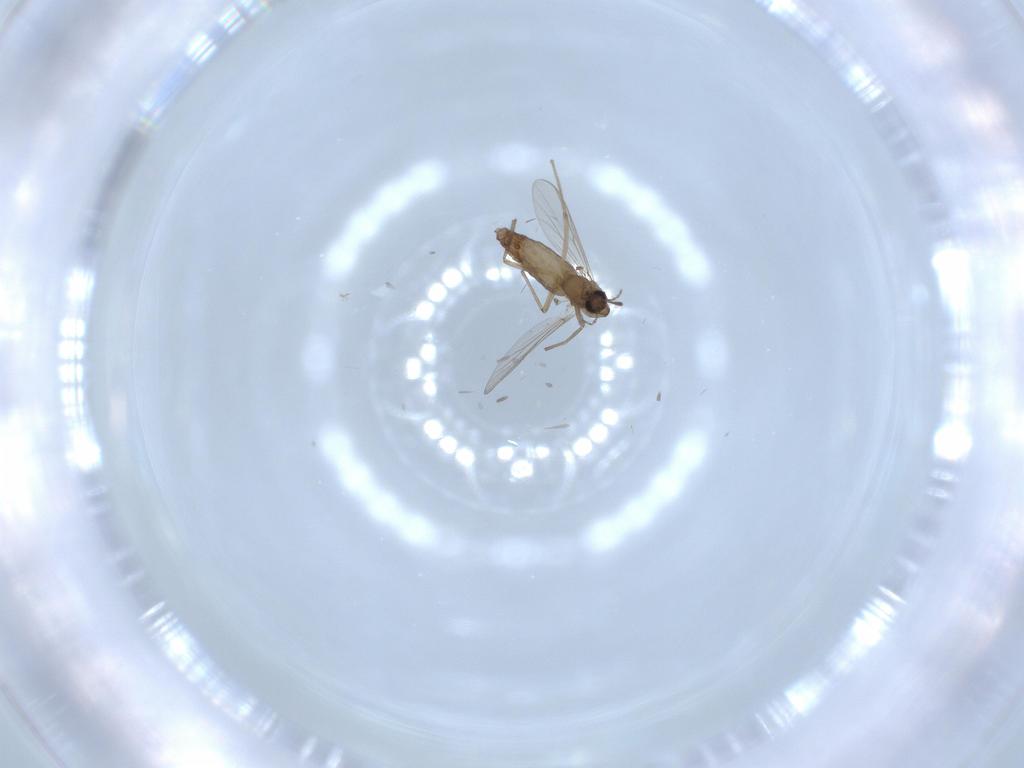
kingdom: Animalia
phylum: Arthropoda
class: Insecta
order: Diptera
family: Chironomidae
